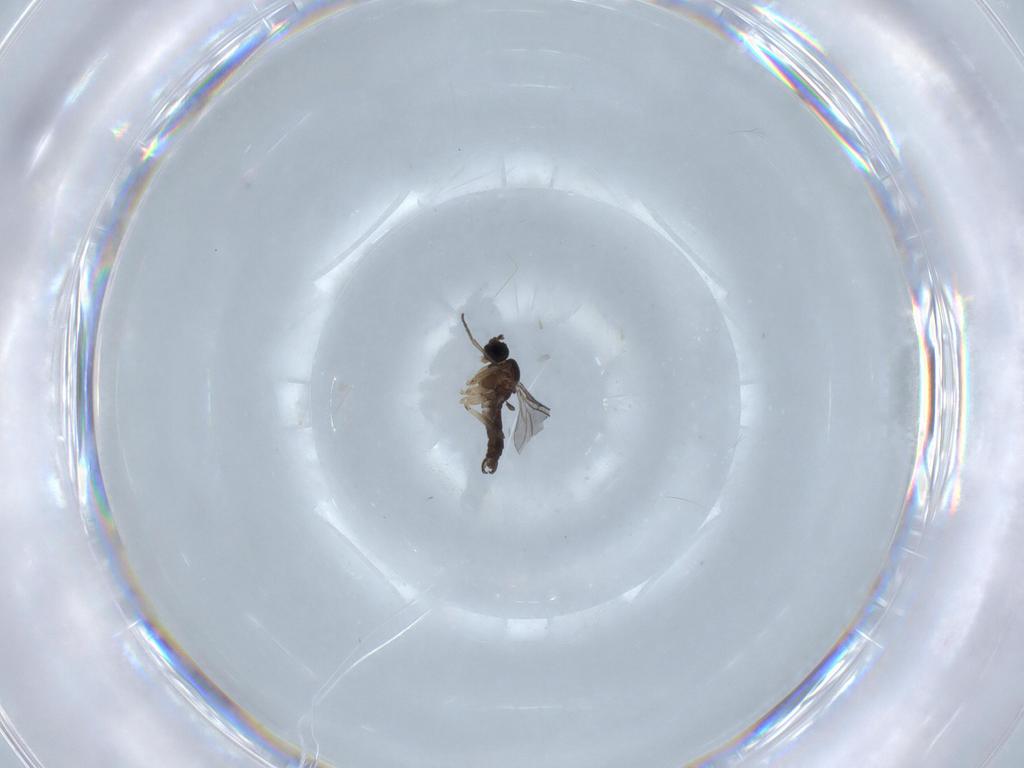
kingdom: Animalia
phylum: Arthropoda
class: Insecta
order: Diptera
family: Sciaridae
